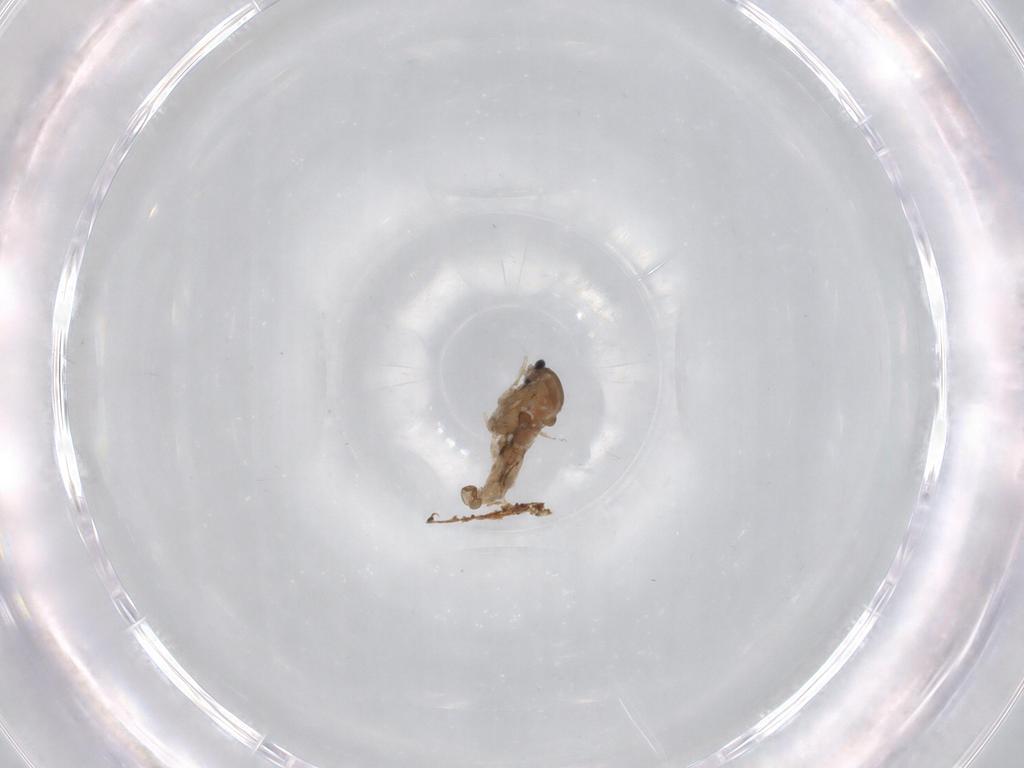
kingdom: Animalia
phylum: Arthropoda
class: Insecta
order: Diptera
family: Cecidomyiidae
